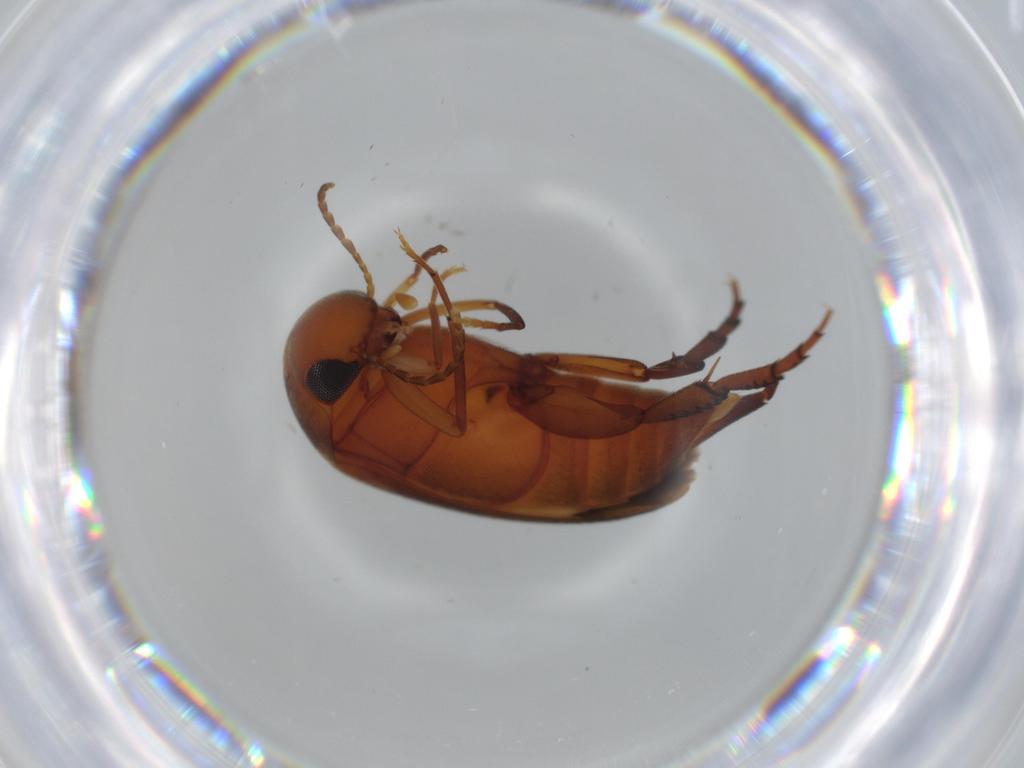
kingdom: Animalia
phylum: Arthropoda
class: Insecta
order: Coleoptera
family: Mordellidae
